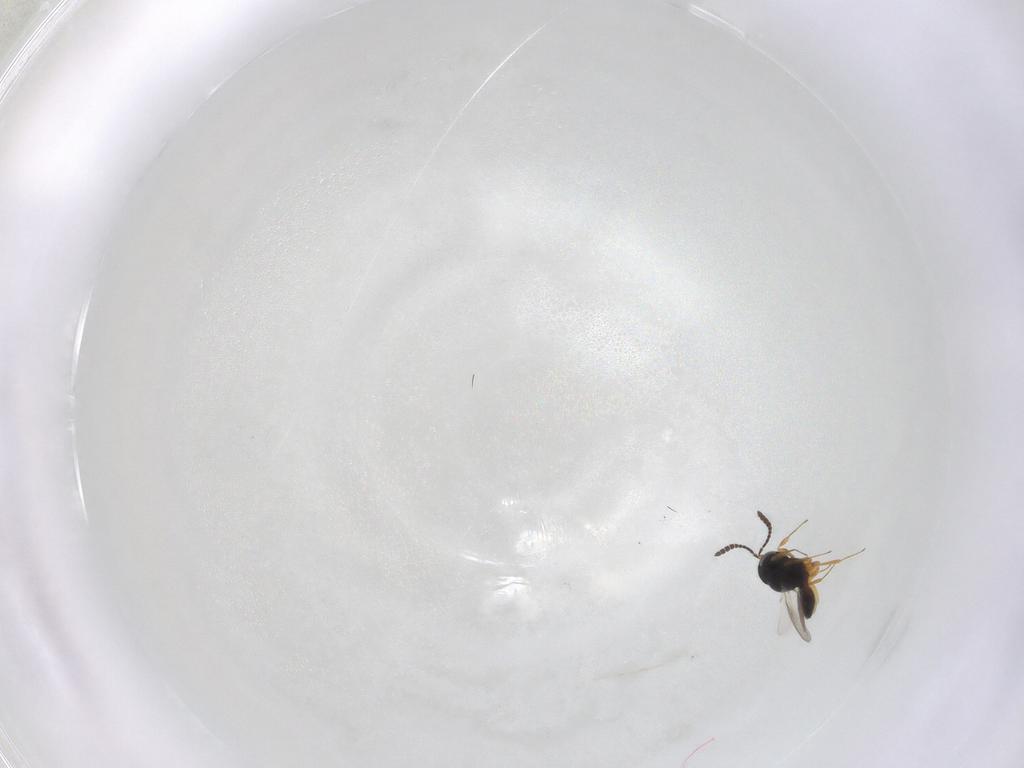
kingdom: Animalia
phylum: Arthropoda
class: Insecta
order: Hymenoptera
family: Scelionidae
